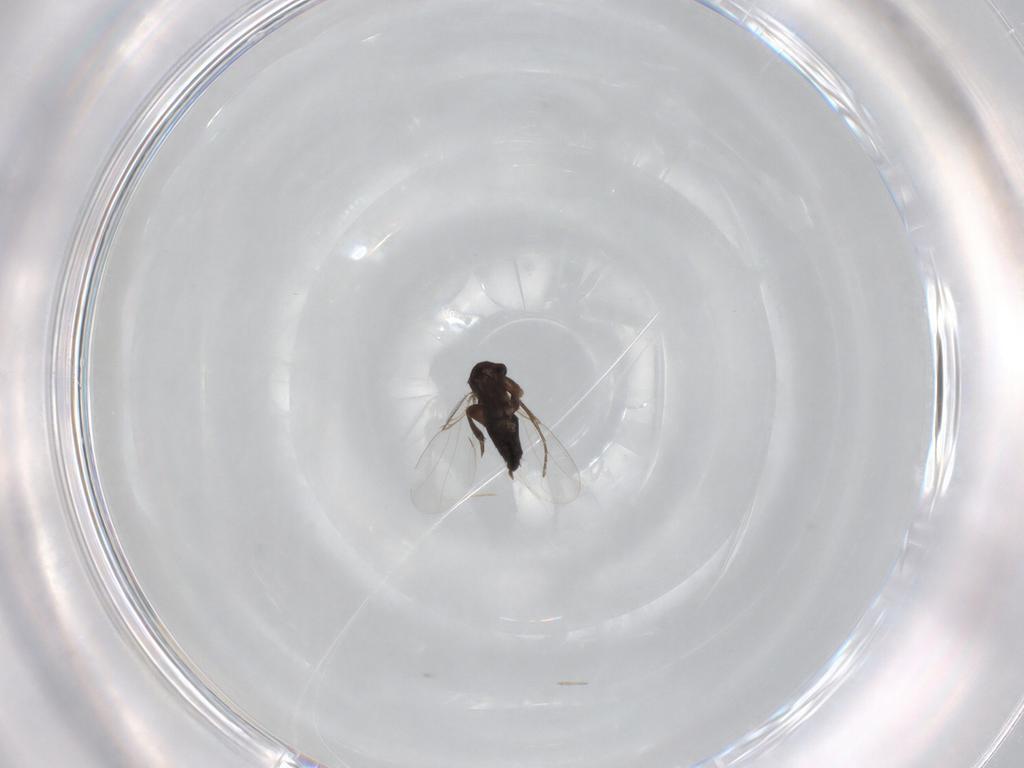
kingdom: Animalia
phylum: Arthropoda
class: Insecta
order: Diptera
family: Phoridae
